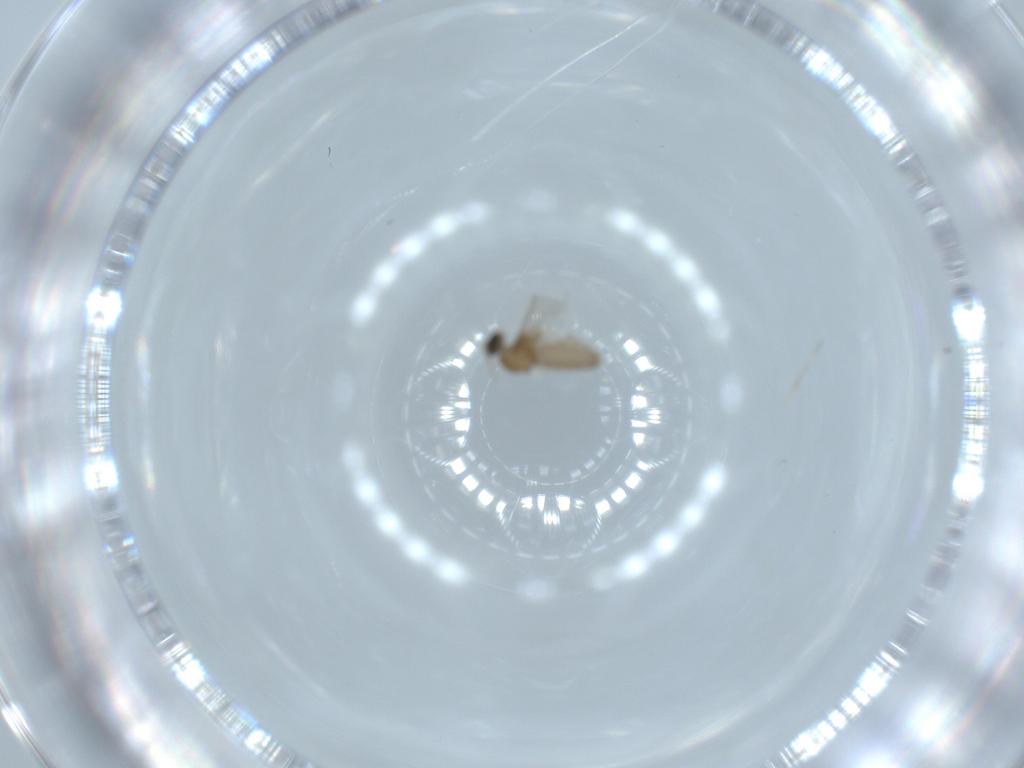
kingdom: Animalia
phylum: Arthropoda
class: Insecta
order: Diptera
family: Cecidomyiidae
